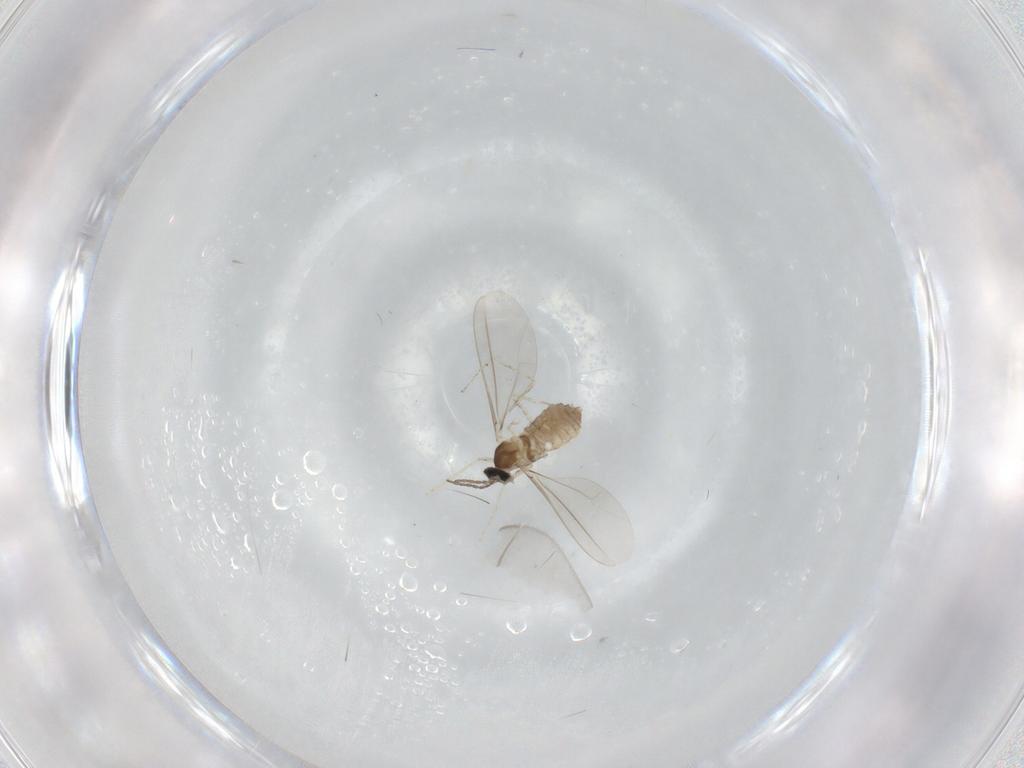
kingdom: Animalia
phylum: Arthropoda
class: Insecta
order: Diptera
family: Cecidomyiidae
